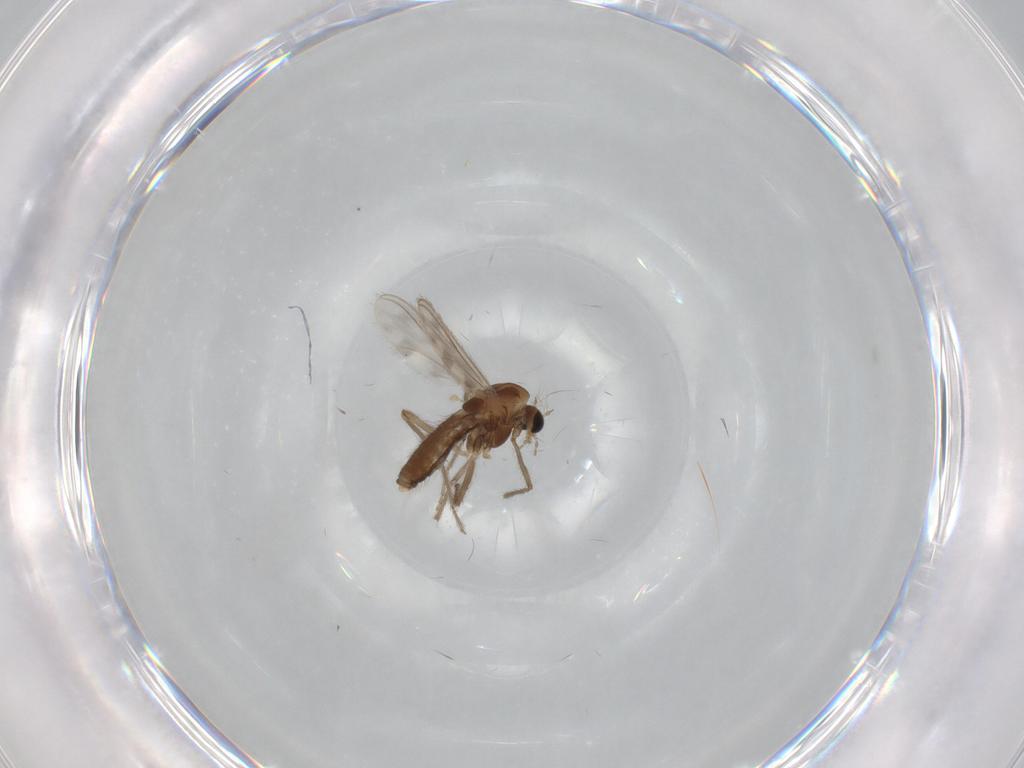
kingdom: Animalia
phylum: Arthropoda
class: Insecta
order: Diptera
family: Chironomidae
